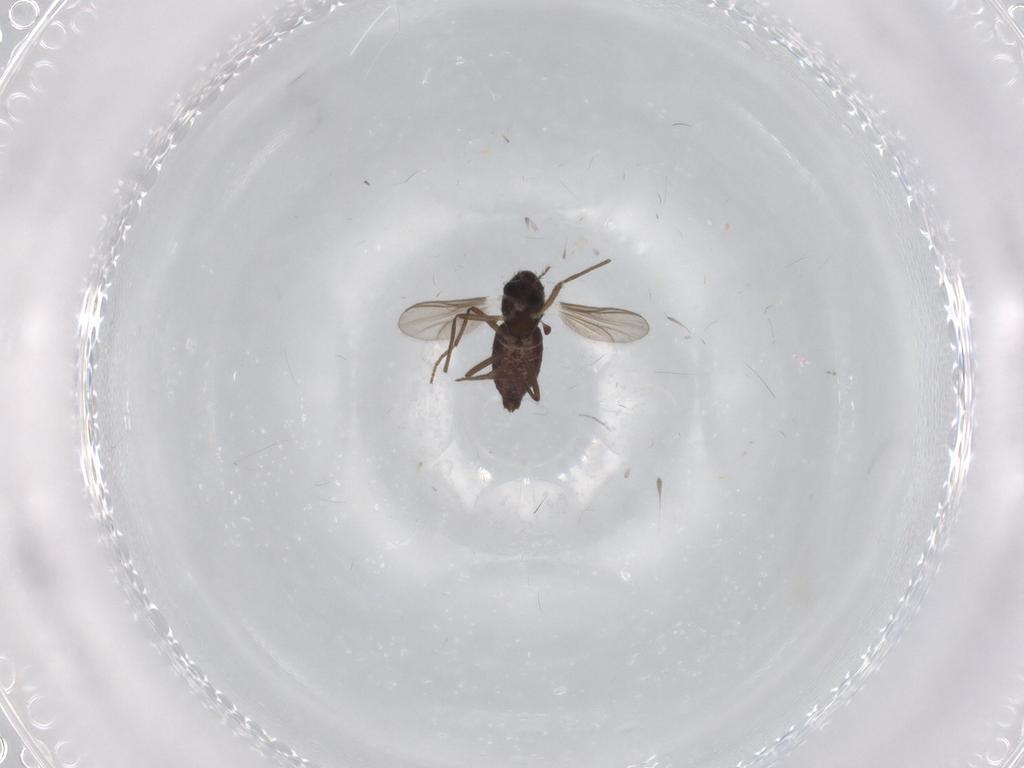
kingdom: Animalia
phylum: Arthropoda
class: Insecta
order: Diptera
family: Chironomidae
